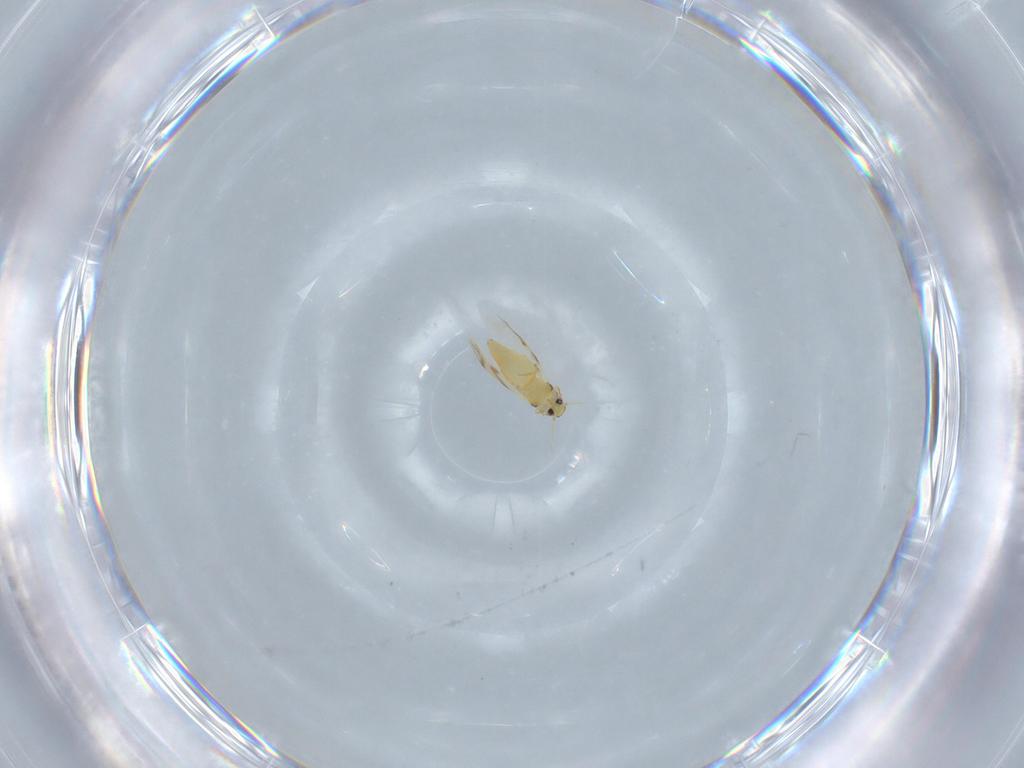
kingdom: Animalia
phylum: Arthropoda
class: Insecta
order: Hemiptera
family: Aleyrodidae
